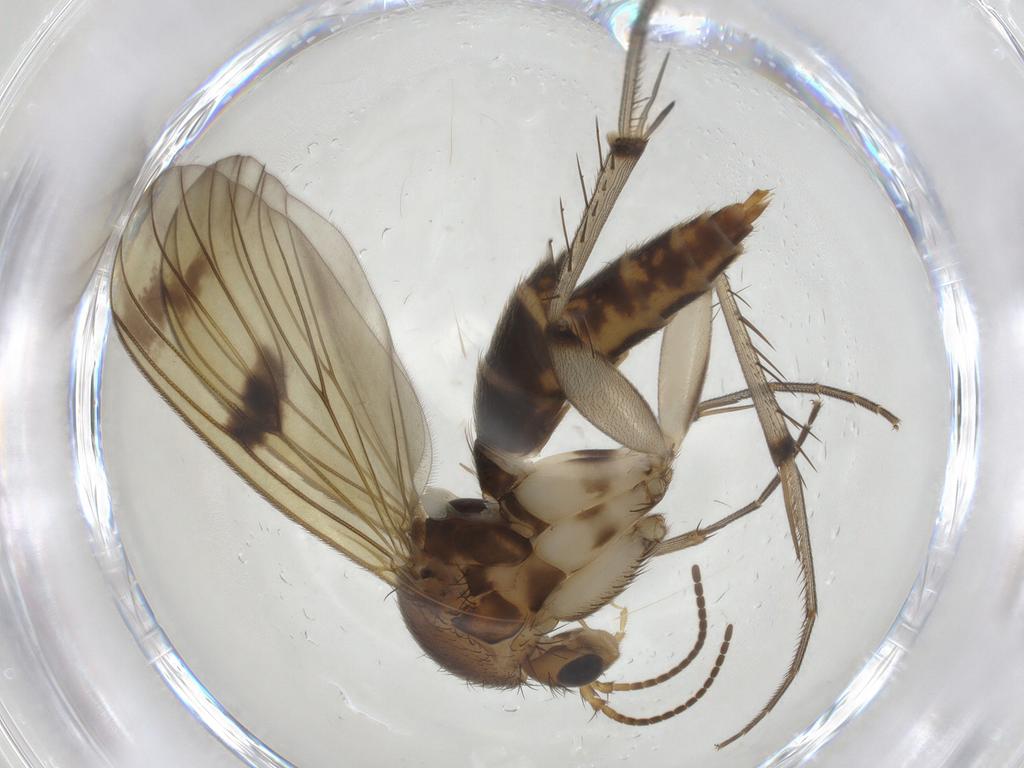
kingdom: Animalia
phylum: Arthropoda
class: Insecta
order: Diptera
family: Mycetophilidae
